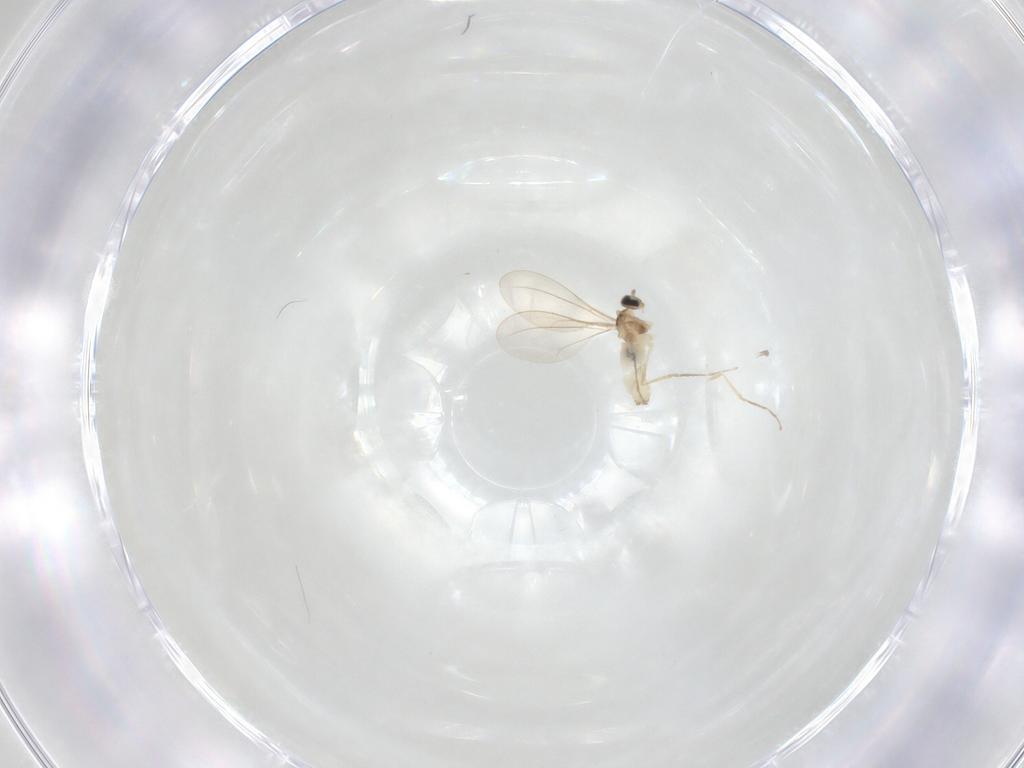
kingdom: Animalia
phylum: Arthropoda
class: Insecta
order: Diptera
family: Cecidomyiidae
